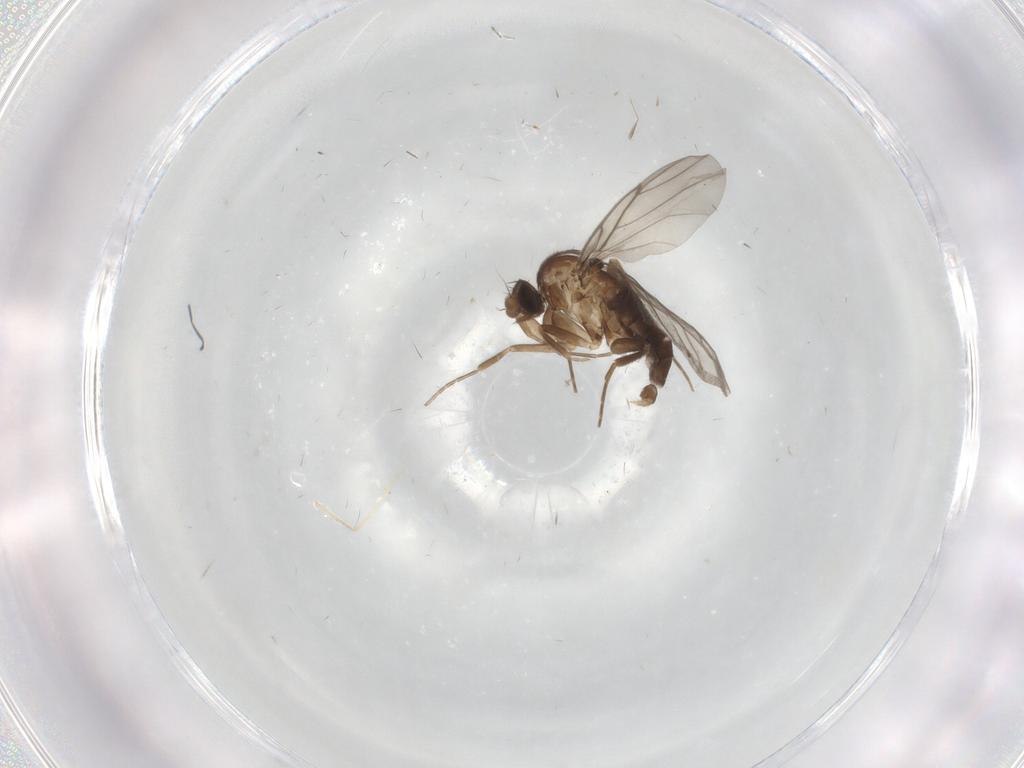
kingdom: Animalia
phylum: Arthropoda
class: Insecta
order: Diptera
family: Limoniidae
